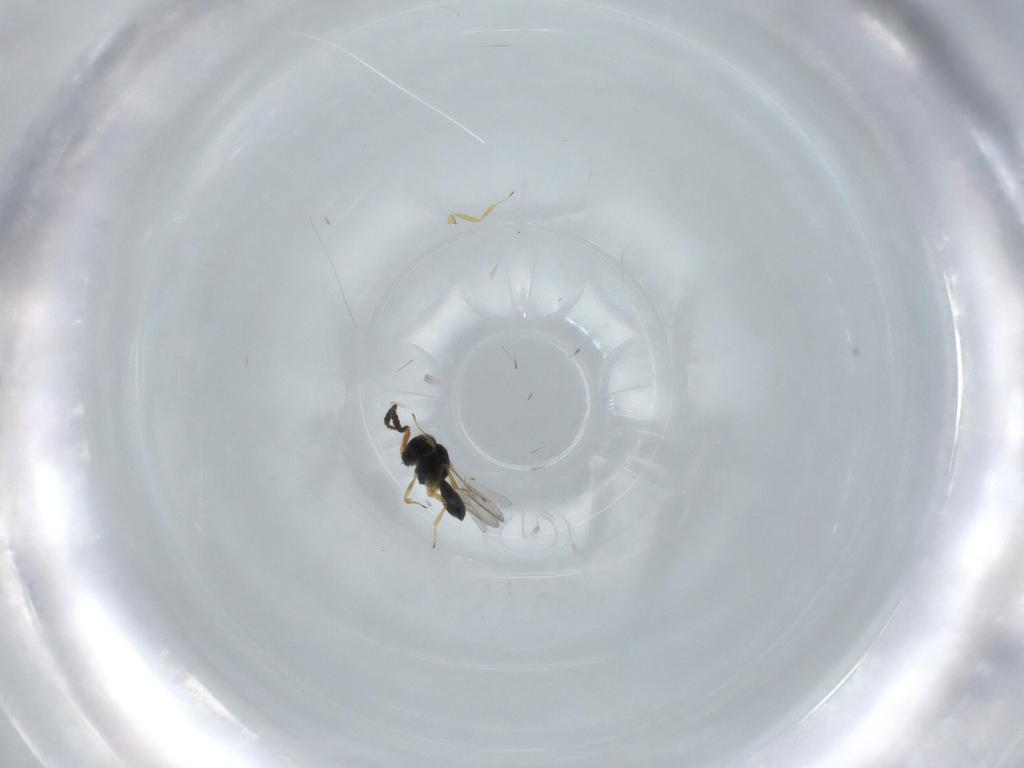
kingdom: Animalia
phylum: Arthropoda
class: Insecta
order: Hymenoptera
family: Scelionidae
